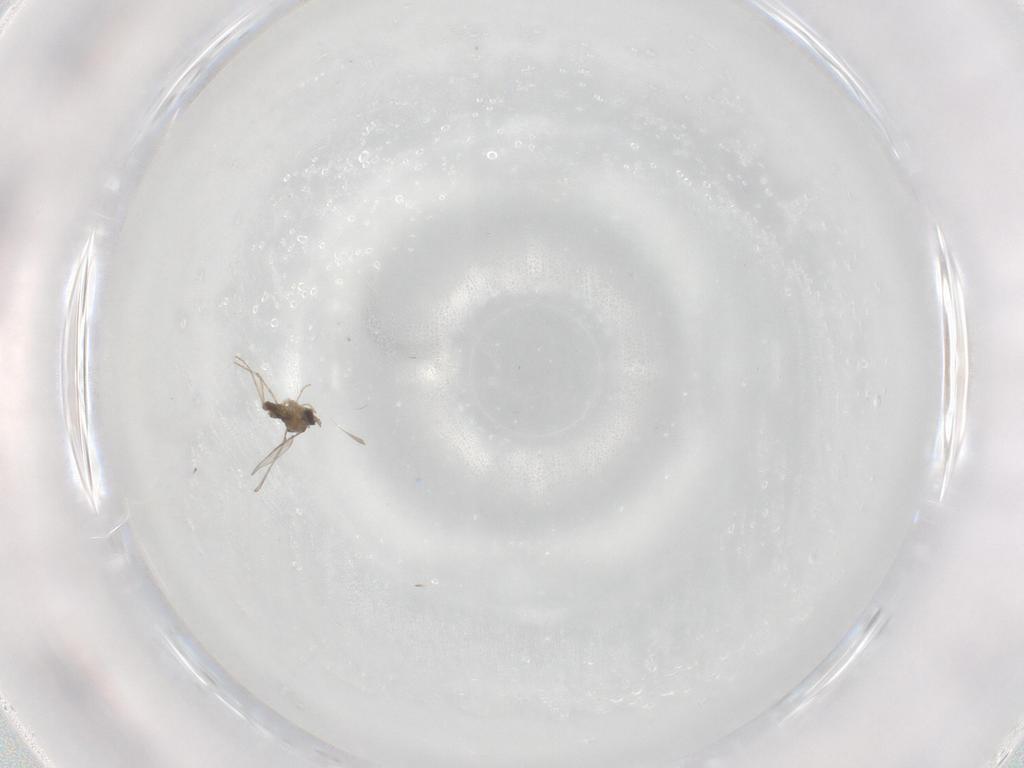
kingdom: Animalia
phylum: Arthropoda
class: Insecta
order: Diptera
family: Cecidomyiidae
